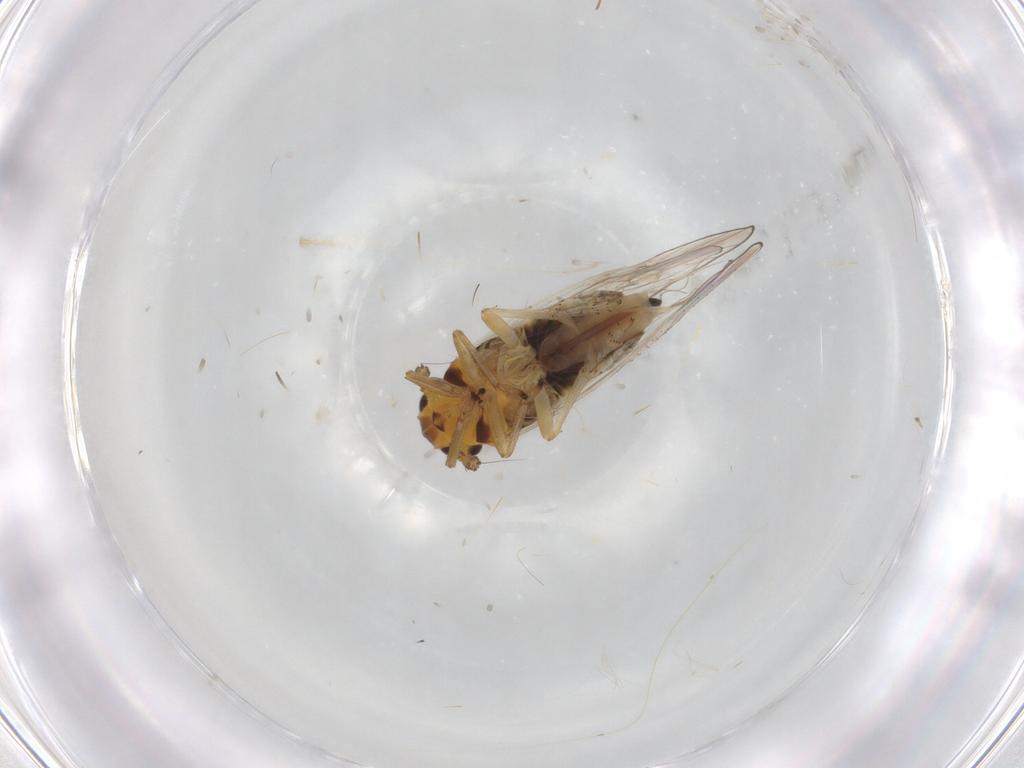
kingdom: Animalia
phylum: Arthropoda
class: Insecta
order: Hemiptera
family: Delphacidae
